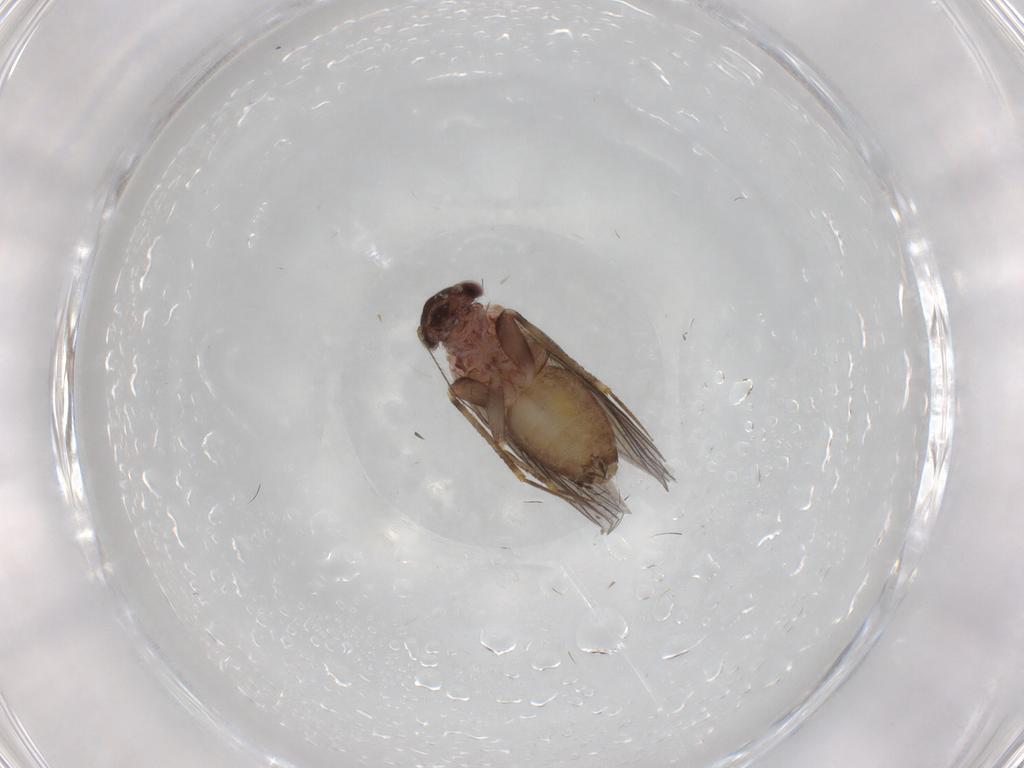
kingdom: Animalia
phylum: Arthropoda
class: Insecta
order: Psocodea
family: Lepidopsocidae
